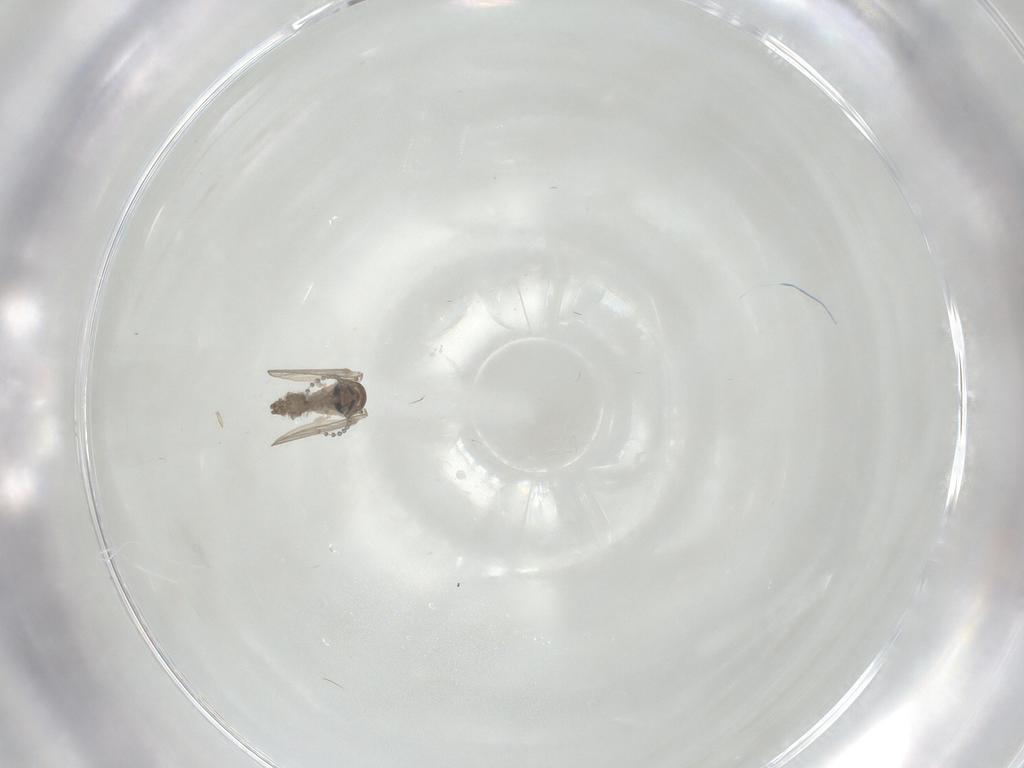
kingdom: Animalia
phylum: Arthropoda
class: Insecta
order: Diptera
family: Psychodidae
